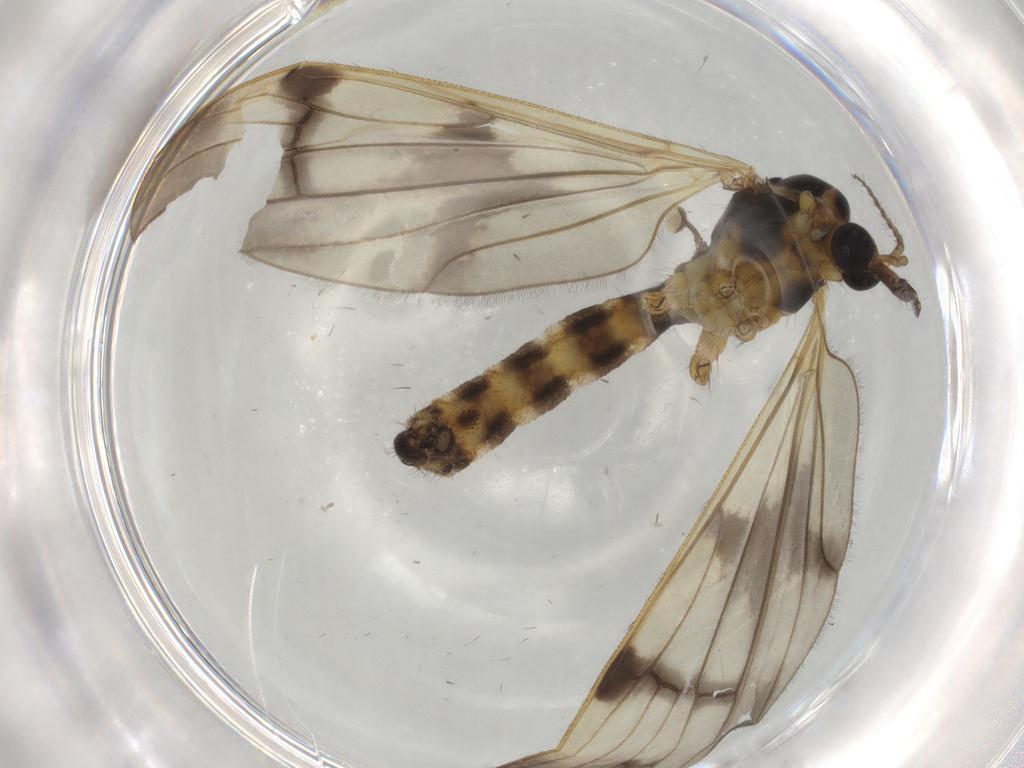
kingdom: Animalia
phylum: Arthropoda
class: Insecta
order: Diptera
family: Limoniidae
